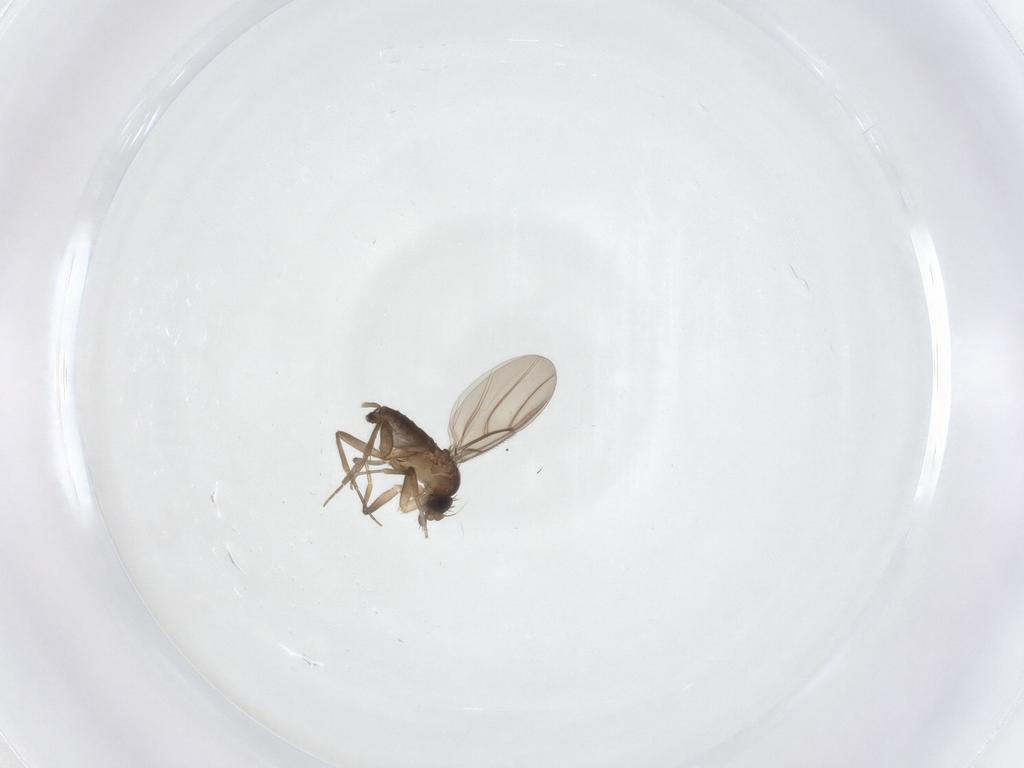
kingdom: Animalia
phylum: Arthropoda
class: Insecta
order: Diptera
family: Phoridae
